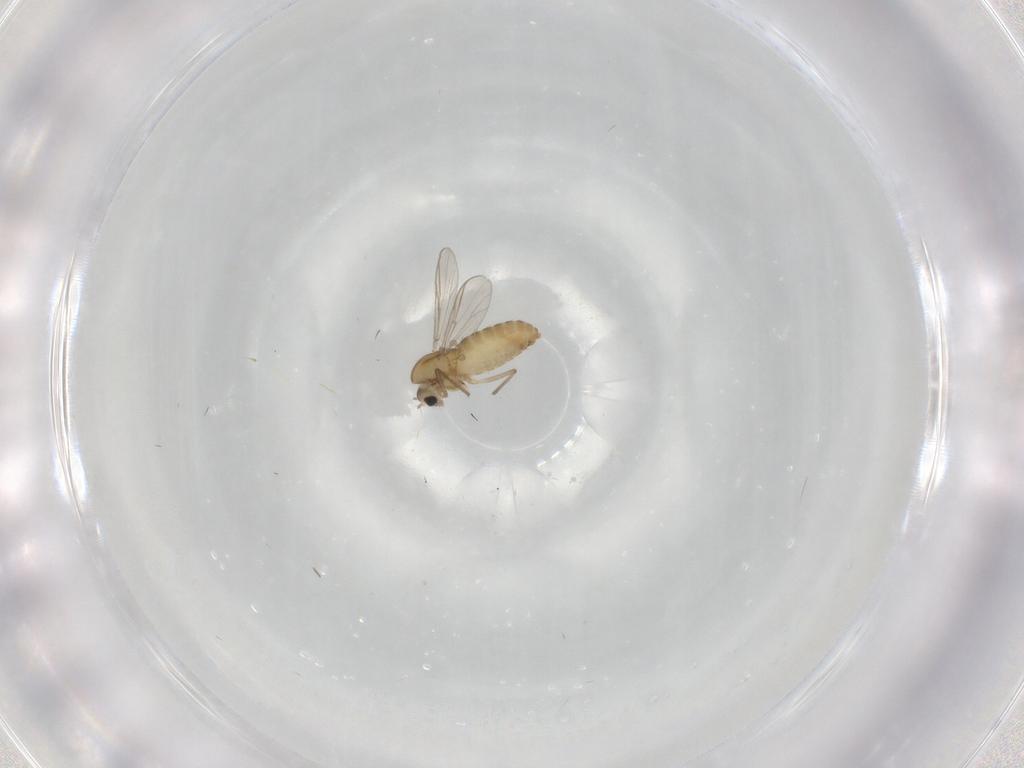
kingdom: Animalia
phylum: Arthropoda
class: Insecta
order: Diptera
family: Chironomidae
